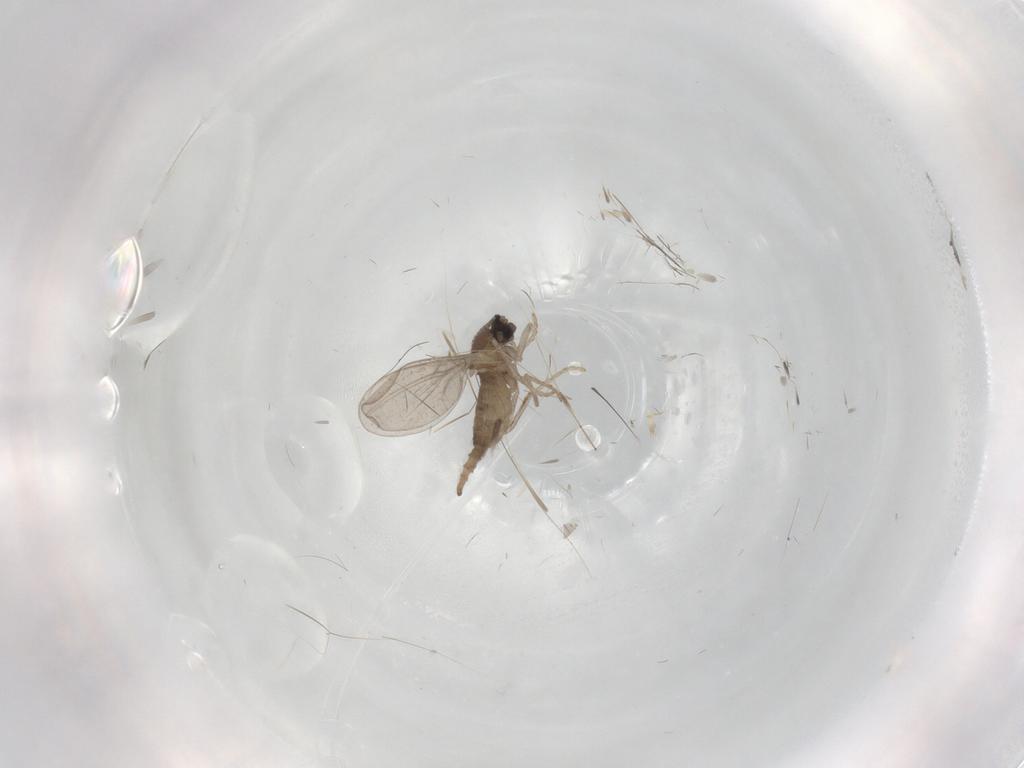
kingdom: Animalia
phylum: Arthropoda
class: Insecta
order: Diptera
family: Cecidomyiidae
